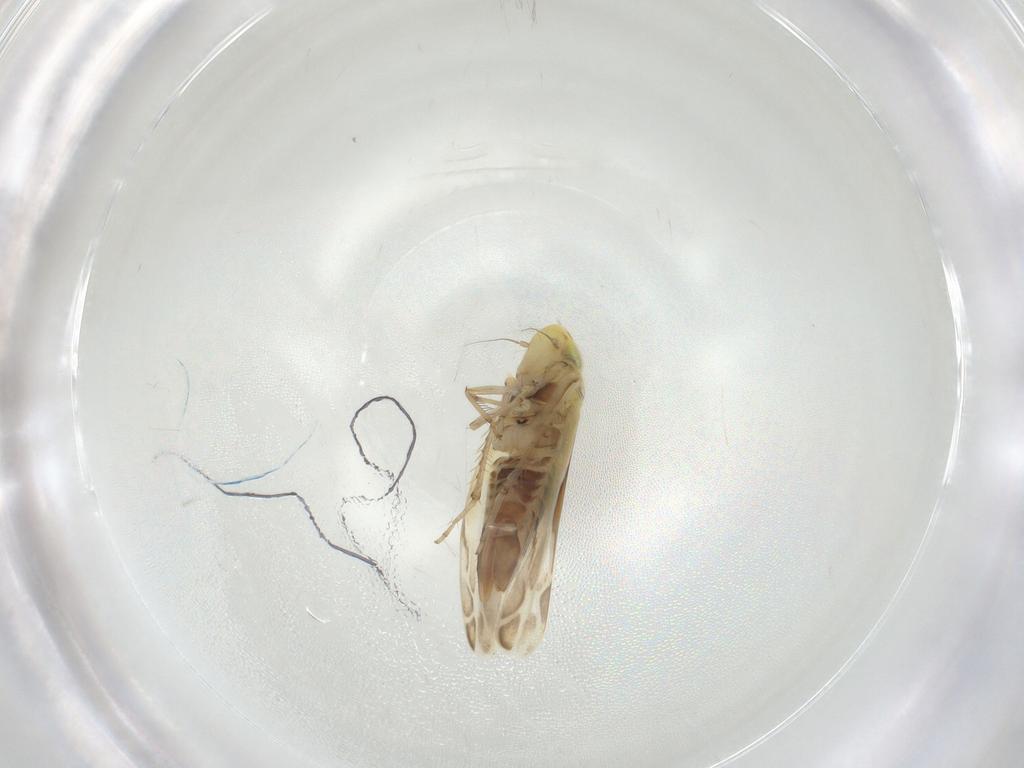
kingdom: Animalia
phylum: Arthropoda
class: Insecta
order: Hemiptera
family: Cicadellidae
